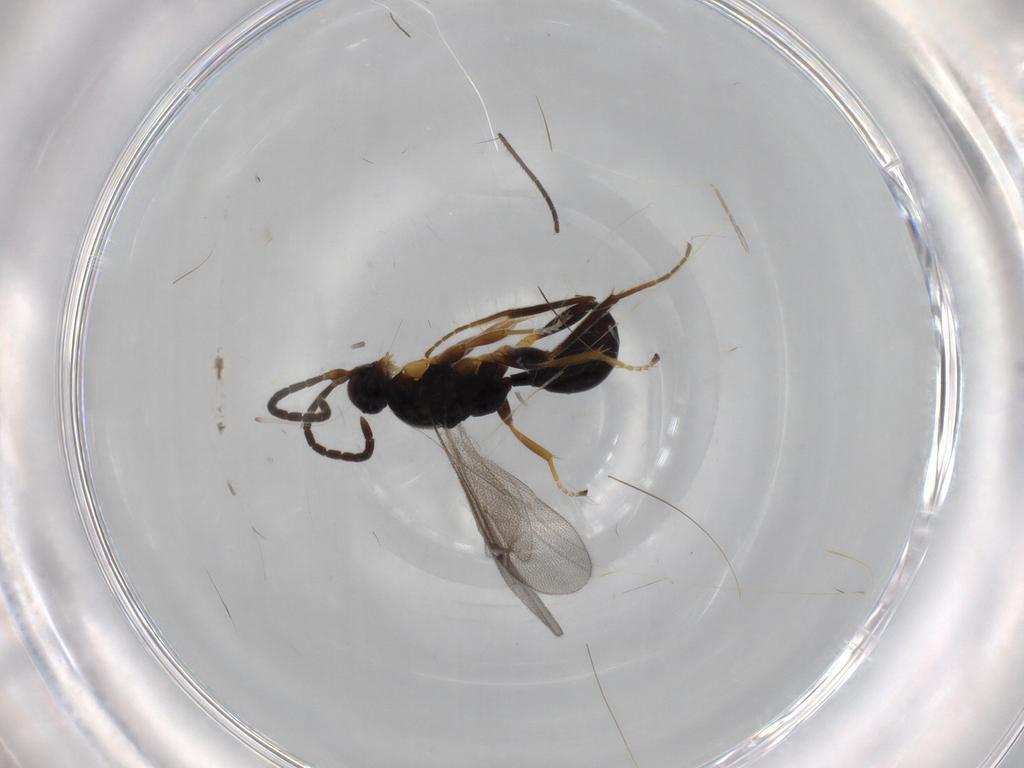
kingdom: Animalia
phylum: Arthropoda
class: Insecta
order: Hymenoptera
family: Proctotrupidae
